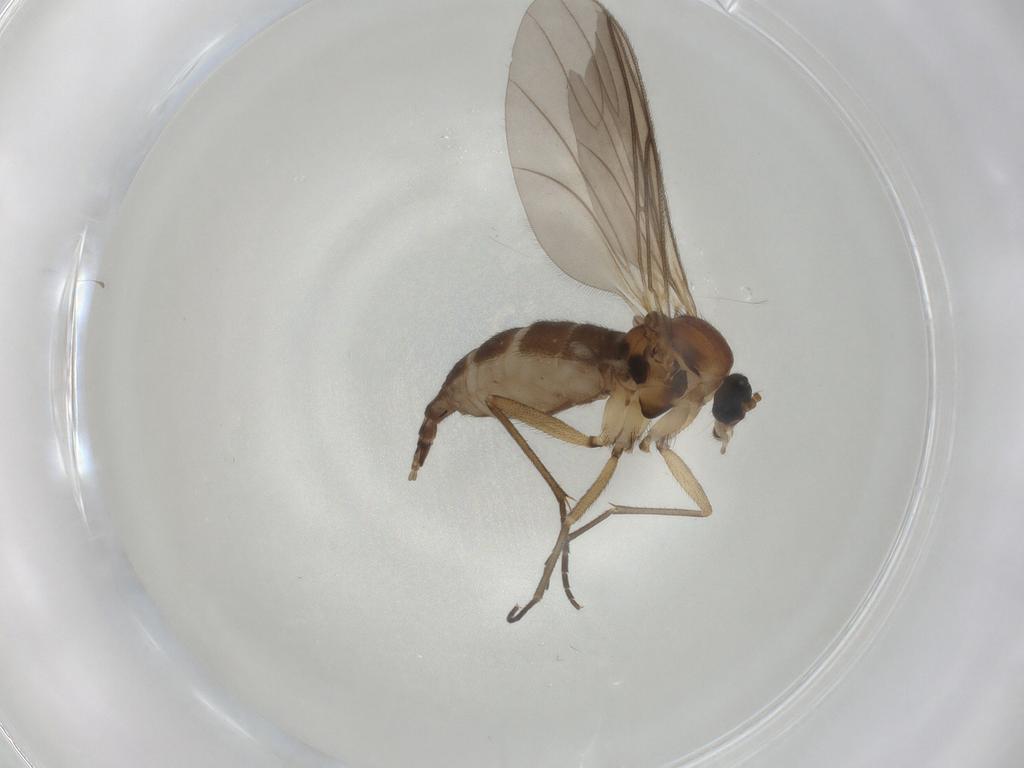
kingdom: Animalia
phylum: Arthropoda
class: Insecta
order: Diptera
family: Sciaridae
